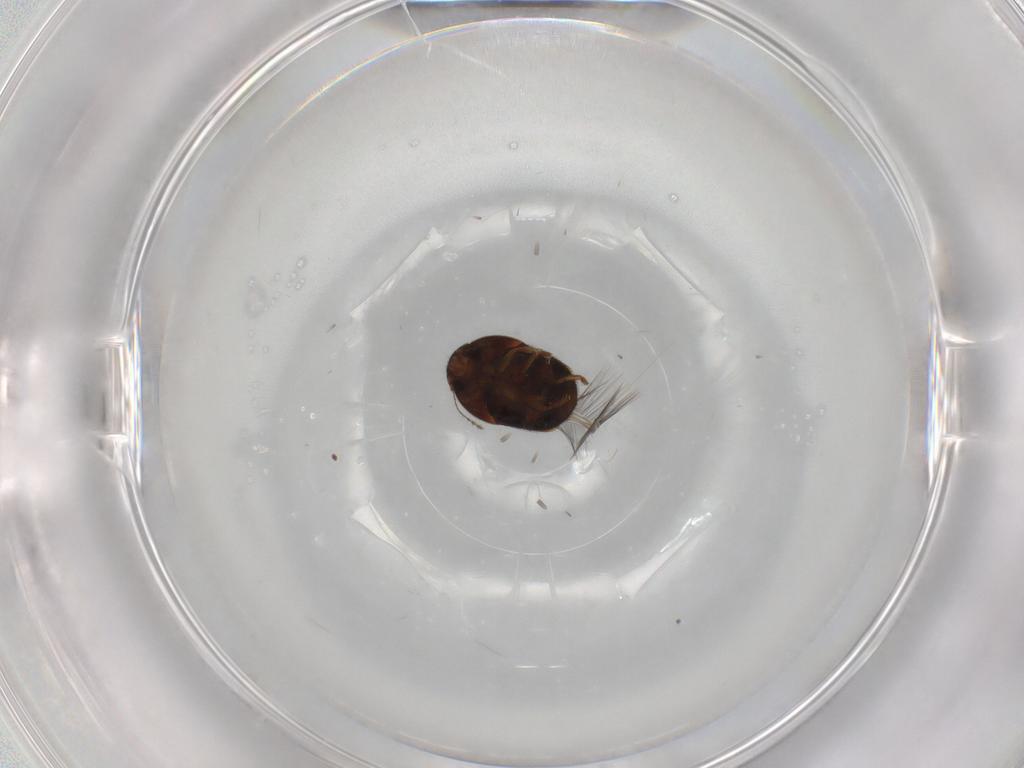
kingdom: Animalia
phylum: Arthropoda
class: Insecta
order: Coleoptera
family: Ptiliidae
